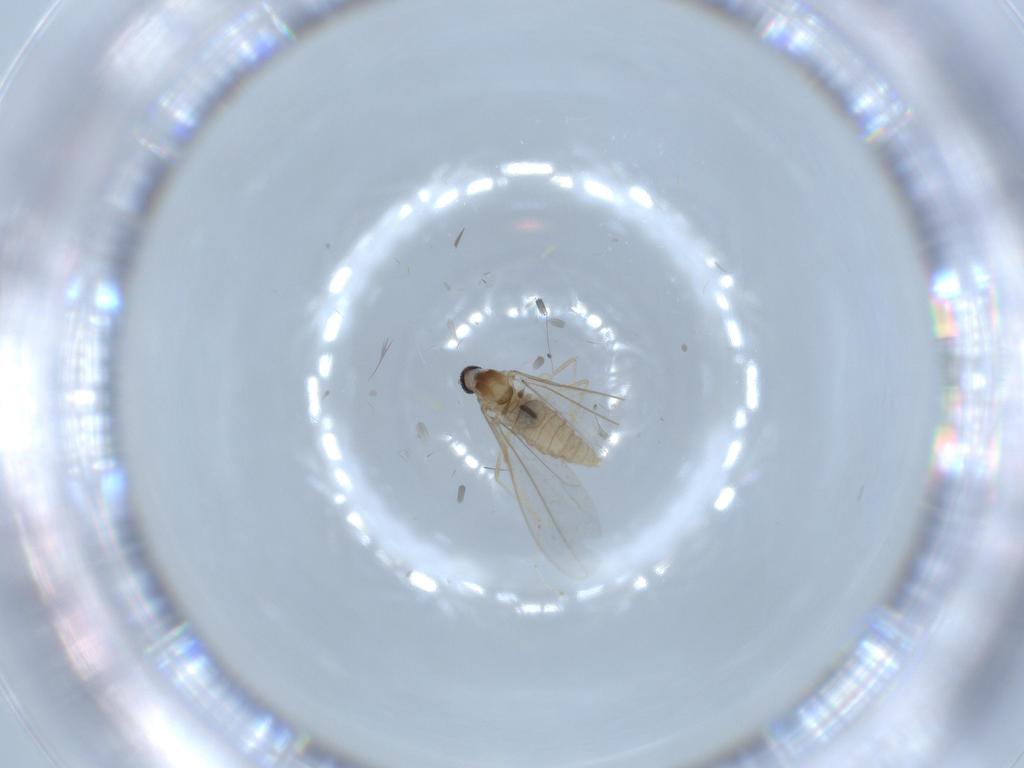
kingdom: Animalia
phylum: Arthropoda
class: Insecta
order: Diptera
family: Cecidomyiidae
